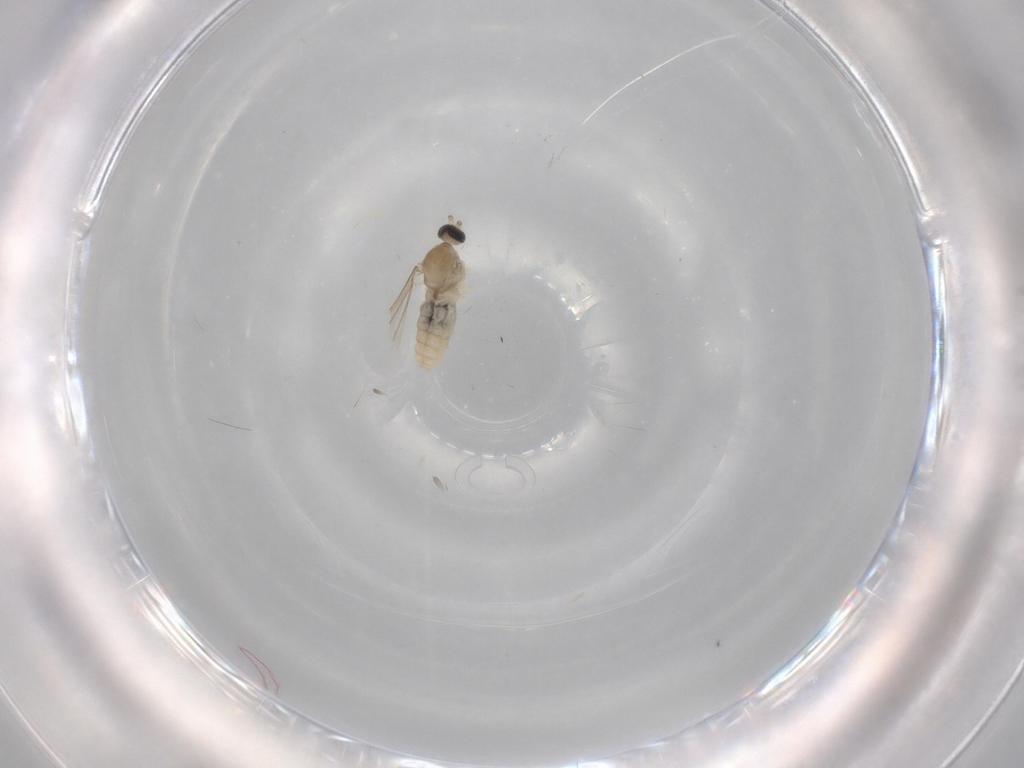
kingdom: Animalia
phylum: Arthropoda
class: Insecta
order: Diptera
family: Cecidomyiidae
